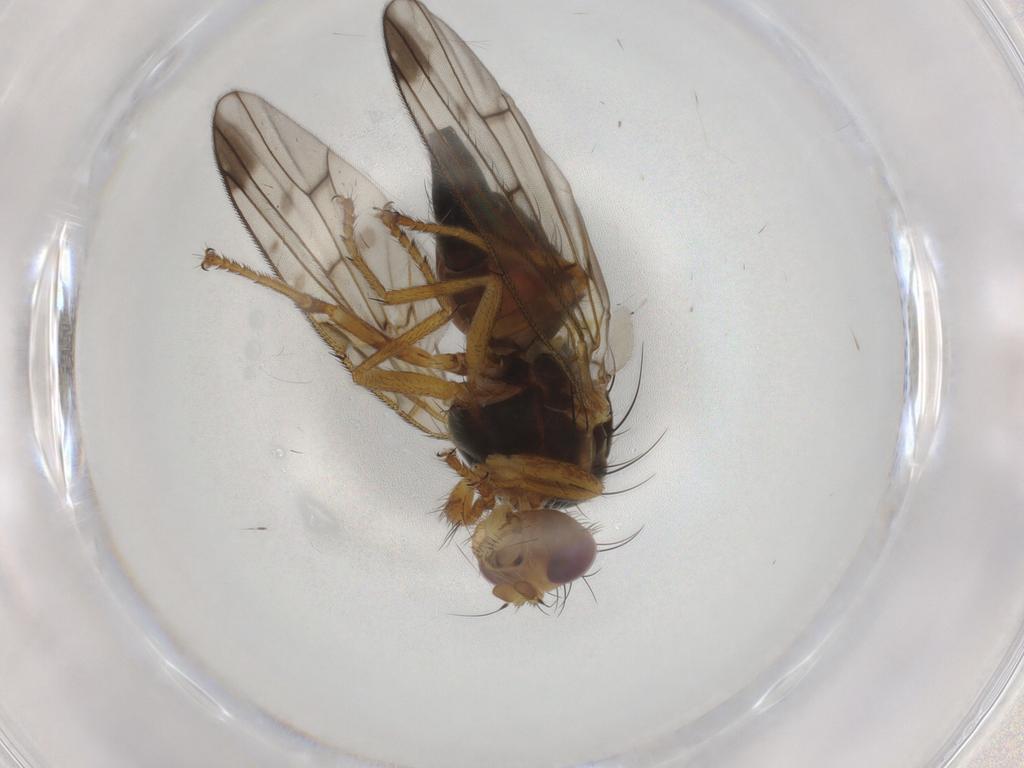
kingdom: Animalia
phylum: Arthropoda
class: Insecta
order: Diptera
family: Tephritidae
